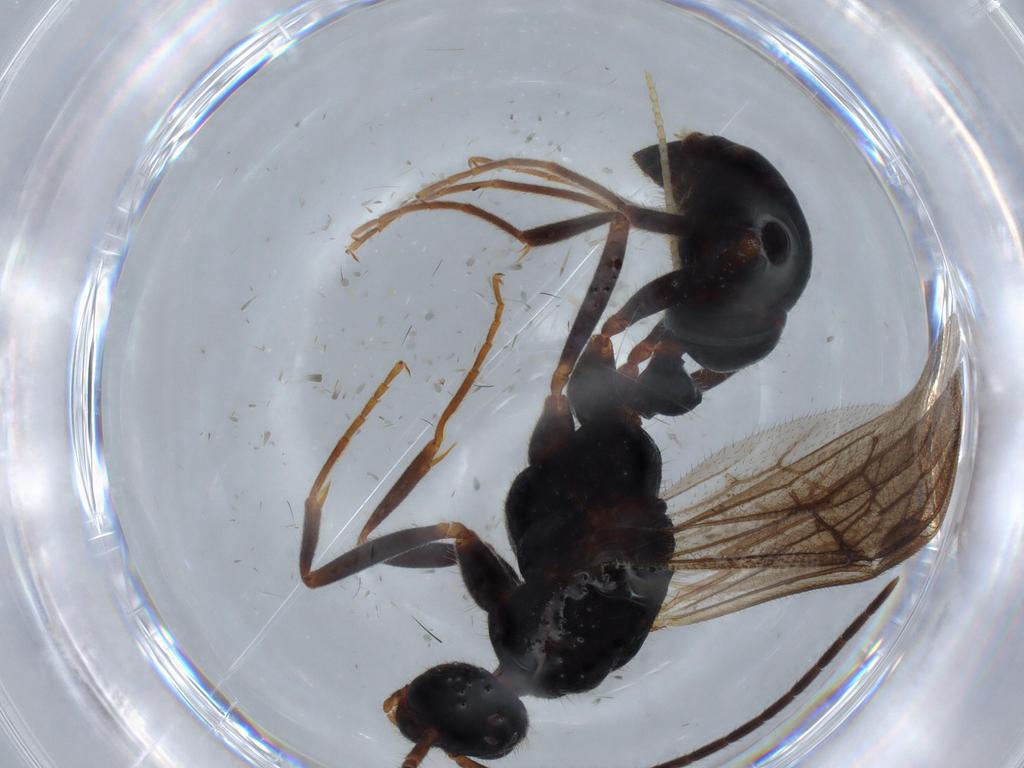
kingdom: Animalia
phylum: Arthropoda
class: Insecta
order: Hymenoptera
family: Formicidae
